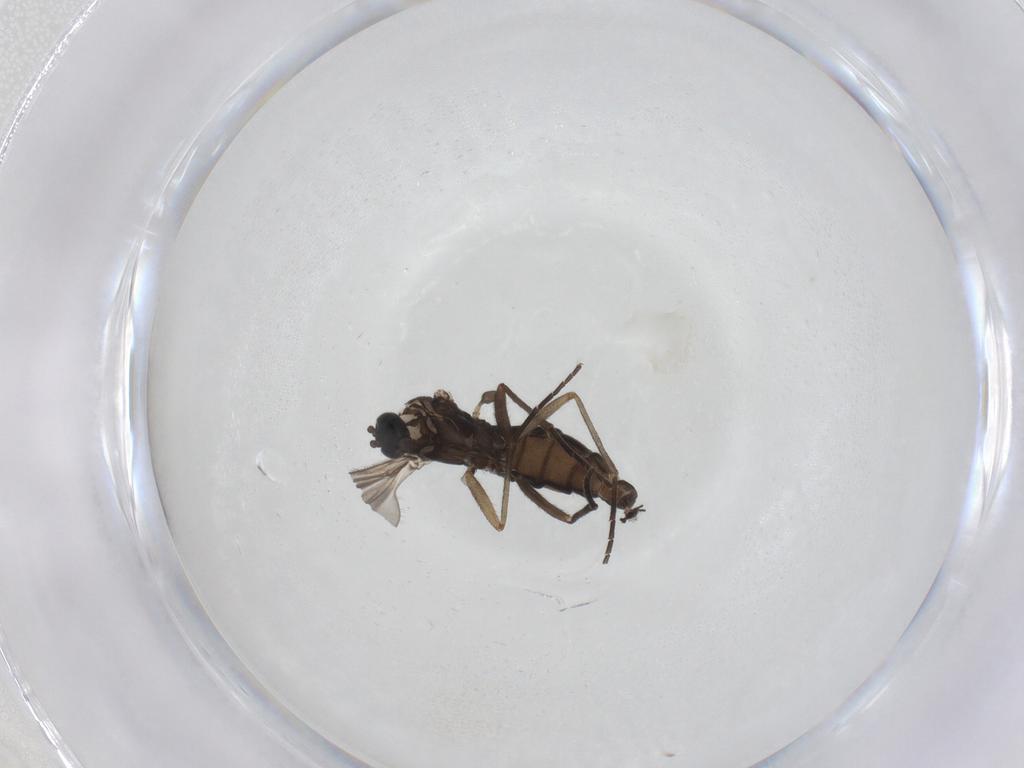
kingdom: Animalia
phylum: Arthropoda
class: Insecta
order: Diptera
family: Sciaridae
